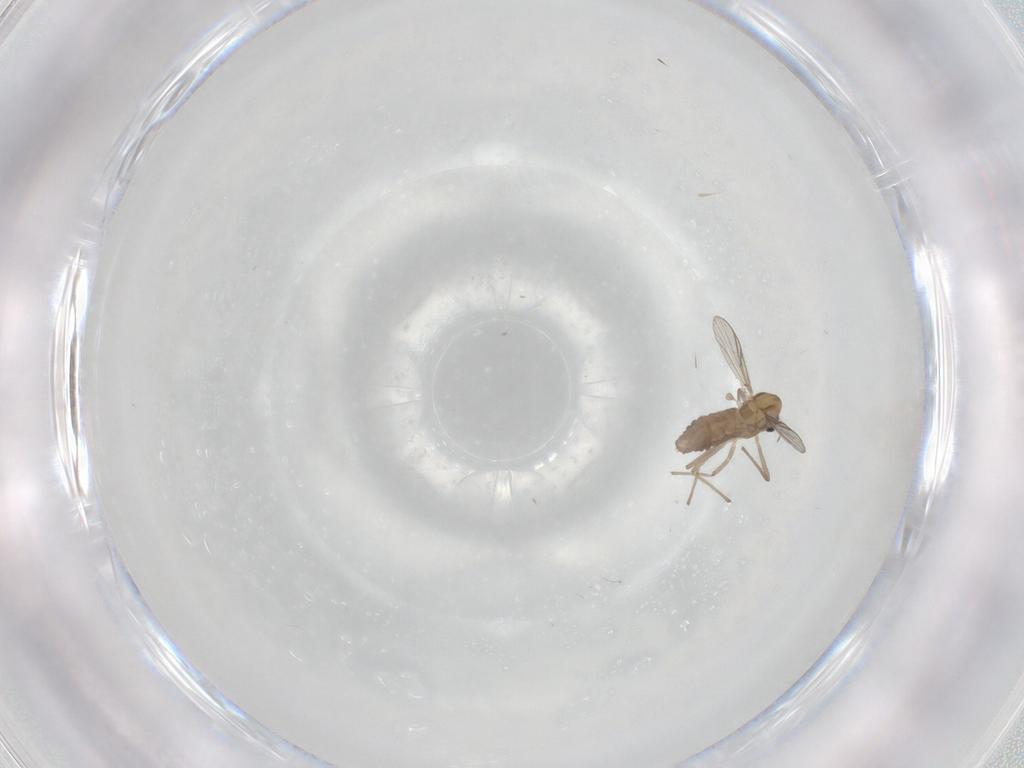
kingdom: Animalia
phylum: Arthropoda
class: Insecta
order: Diptera
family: Chironomidae
